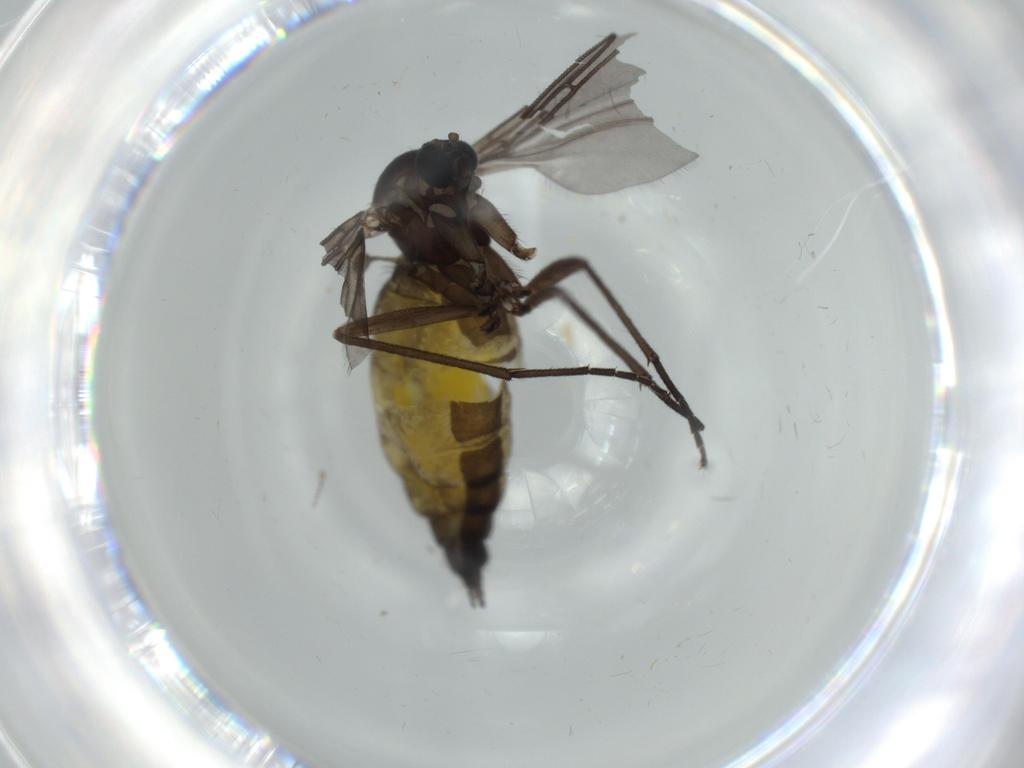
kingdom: Animalia
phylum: Arthropoda
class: Insecta
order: Diptera
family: Sciaridae
